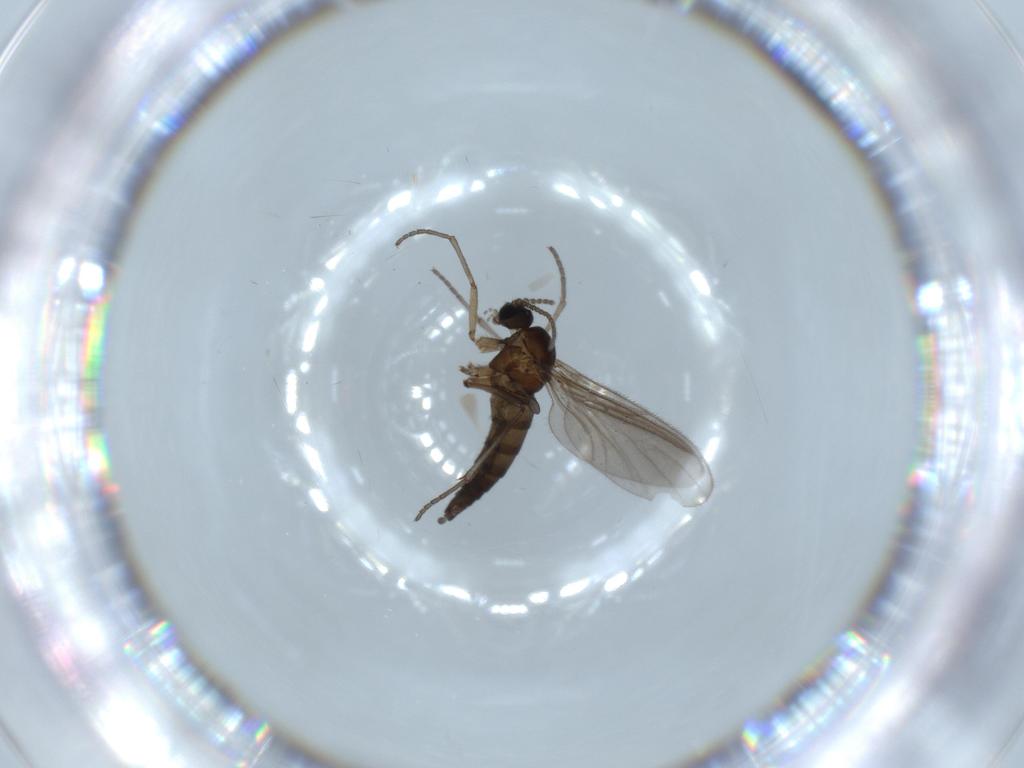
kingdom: Animalia
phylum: Arthropoda
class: Insecta
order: Diptera
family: Sciaridae
